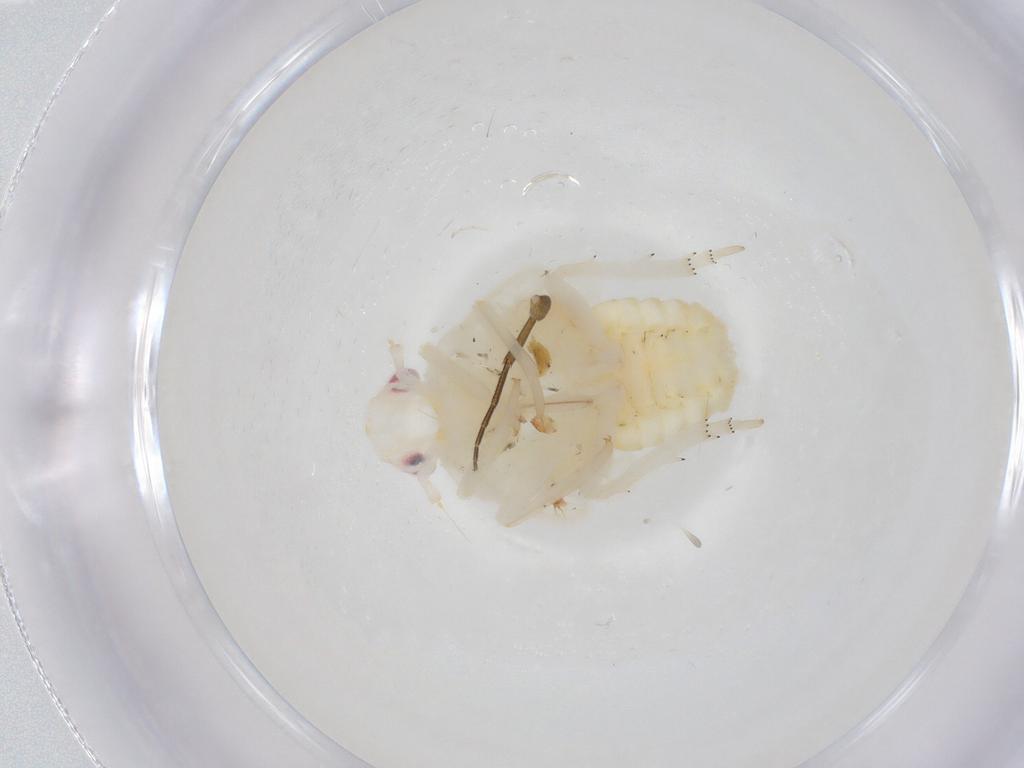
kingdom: Animalia
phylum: Arthropoda
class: Insecta
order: Hemiptera
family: Fulgoroidea_incertae_sedis
